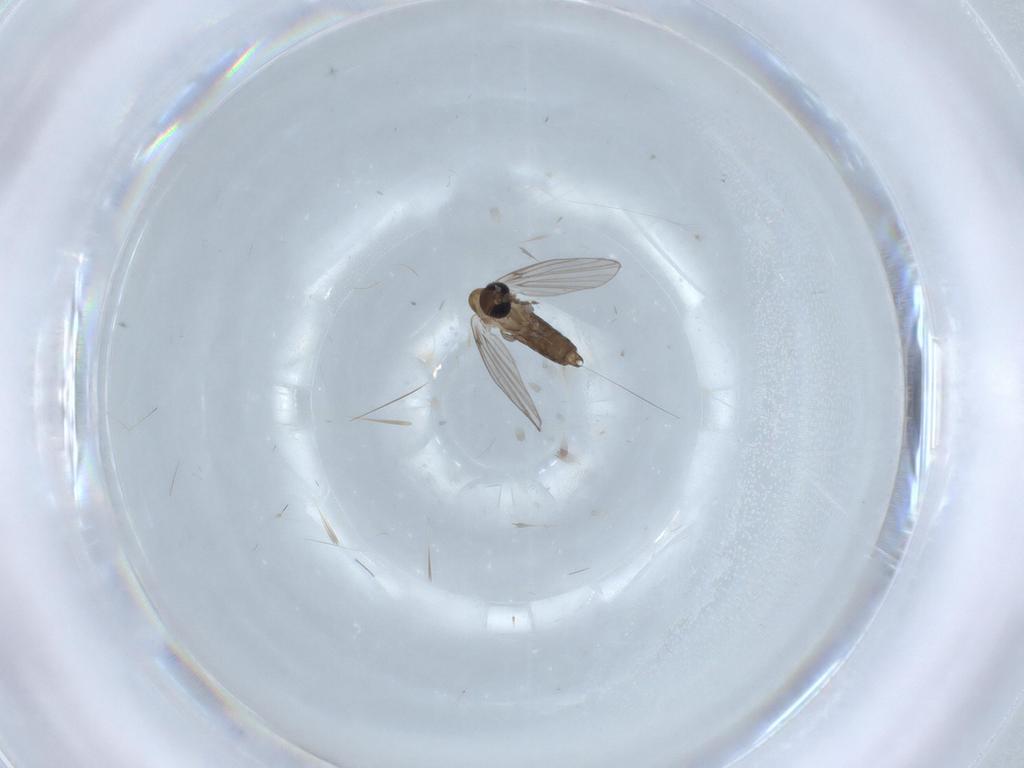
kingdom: Animalia
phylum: Arthropoda
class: Insecta
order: Diptera
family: Psychodidae
